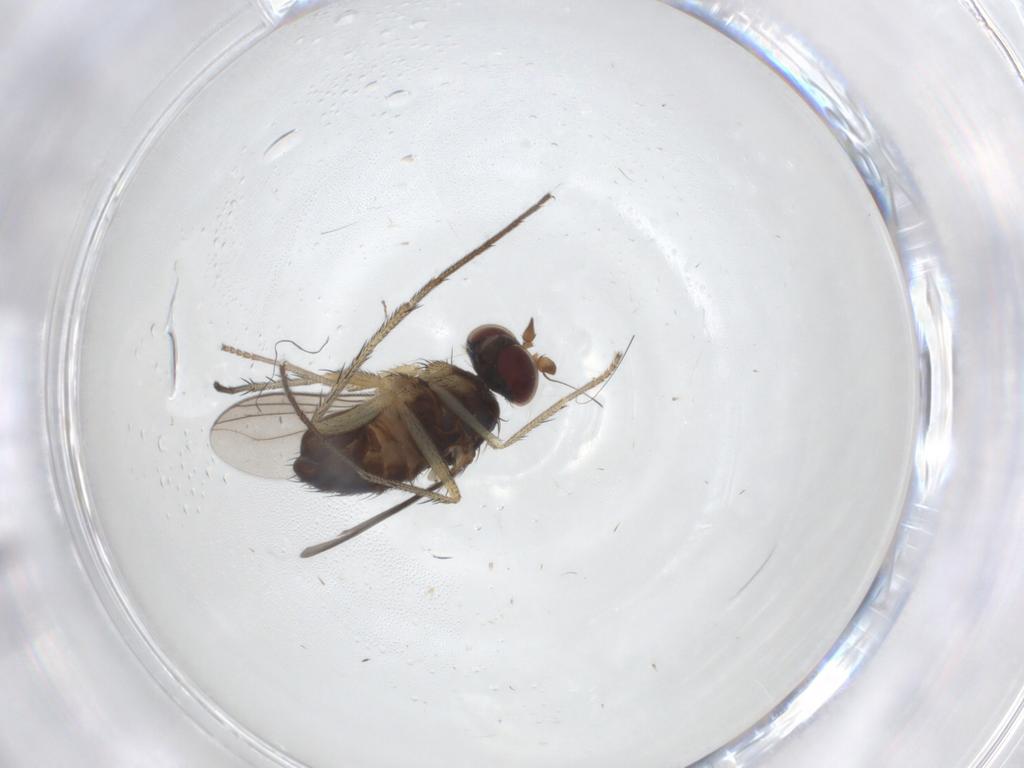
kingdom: Animalia
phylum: Arthropoda
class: Insecta
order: Diptera
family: Dolichopodidae
